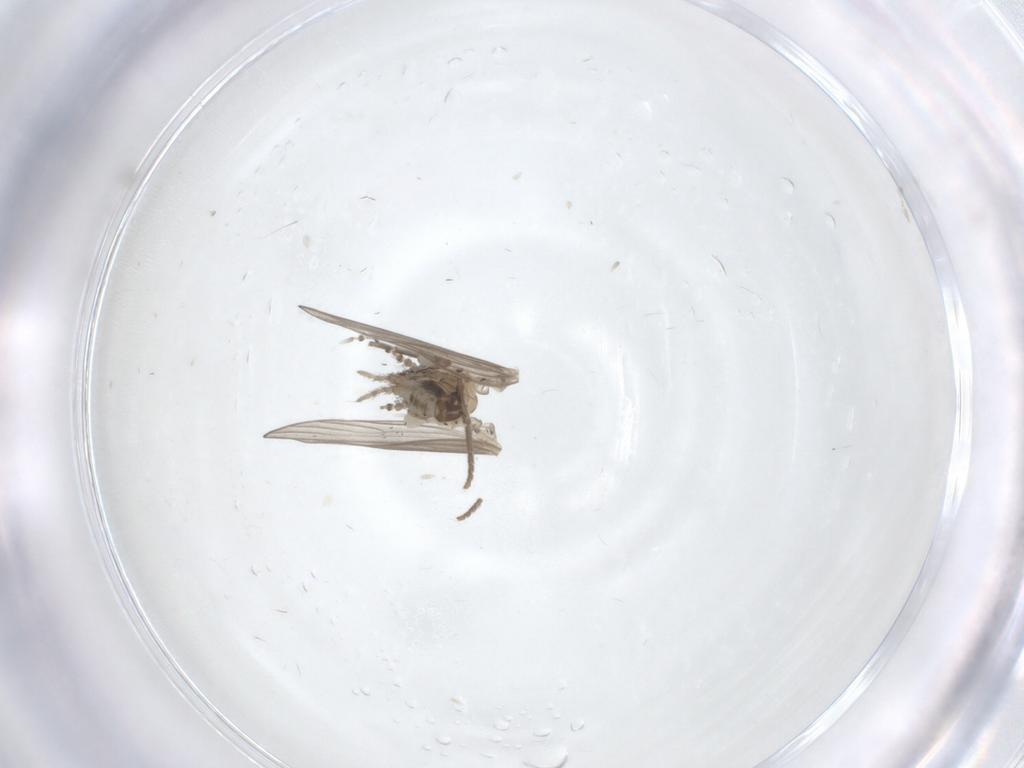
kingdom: Animalia
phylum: Arthropoda
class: Insecta
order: Diptera
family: Psychodidae
